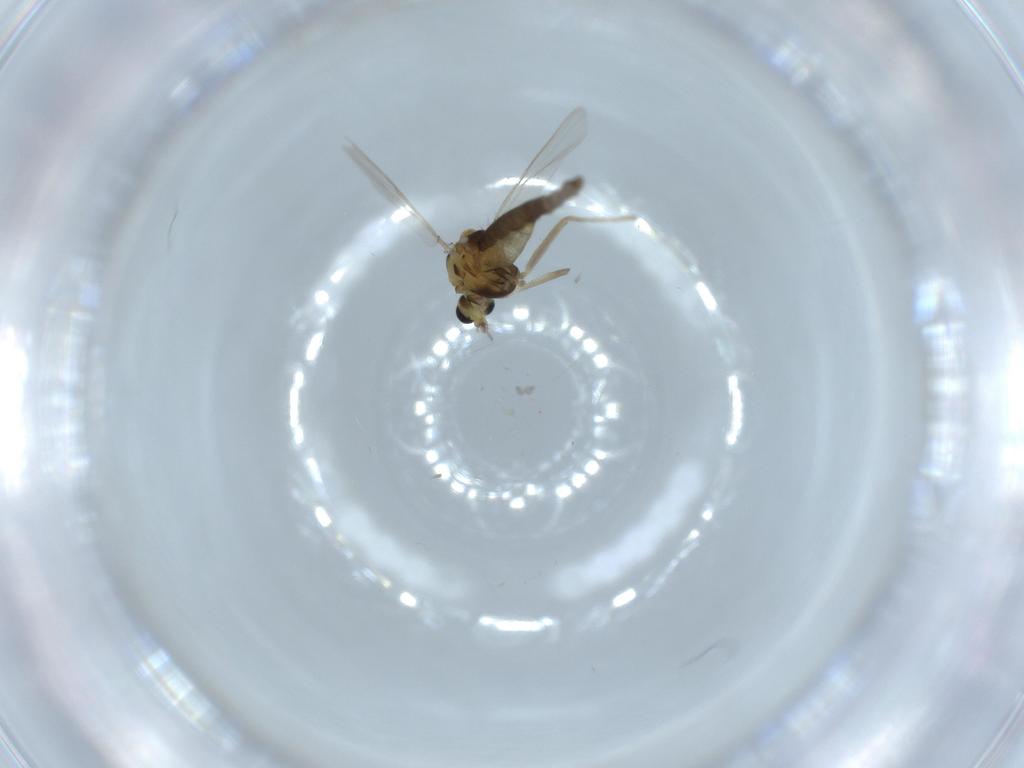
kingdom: Animalia
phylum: Arthropoda
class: Insecta
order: Diptera
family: Chironomidae
